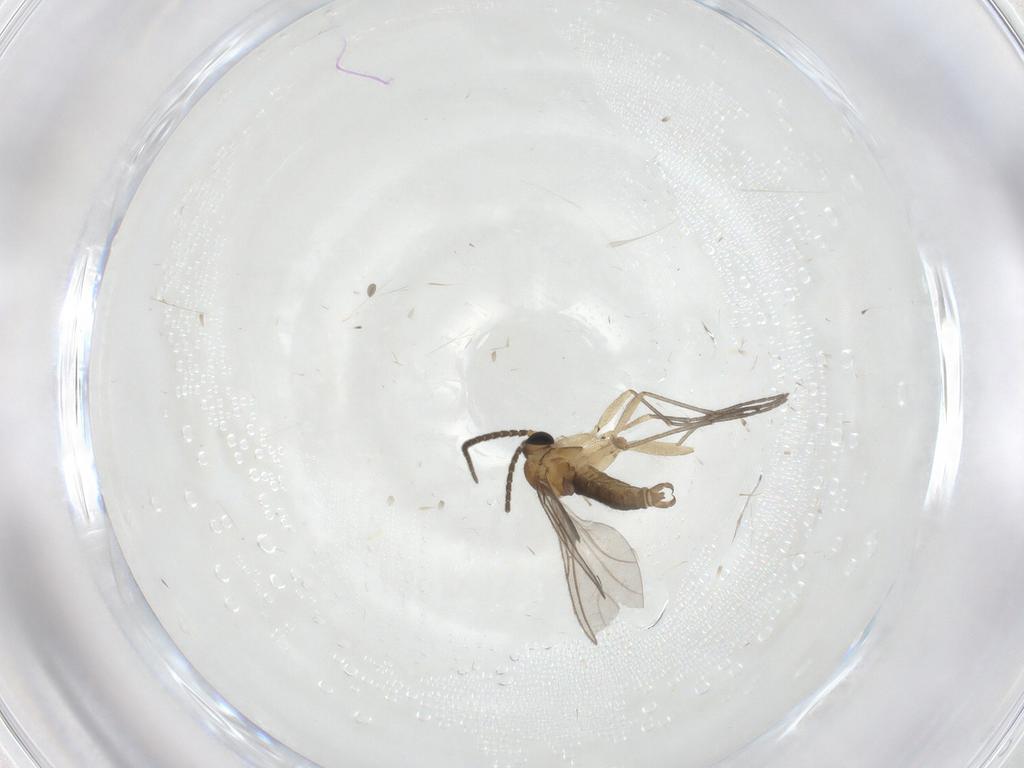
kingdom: Animalia
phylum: Arthropoda
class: Insecta
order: Diptera
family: Sciaridae
